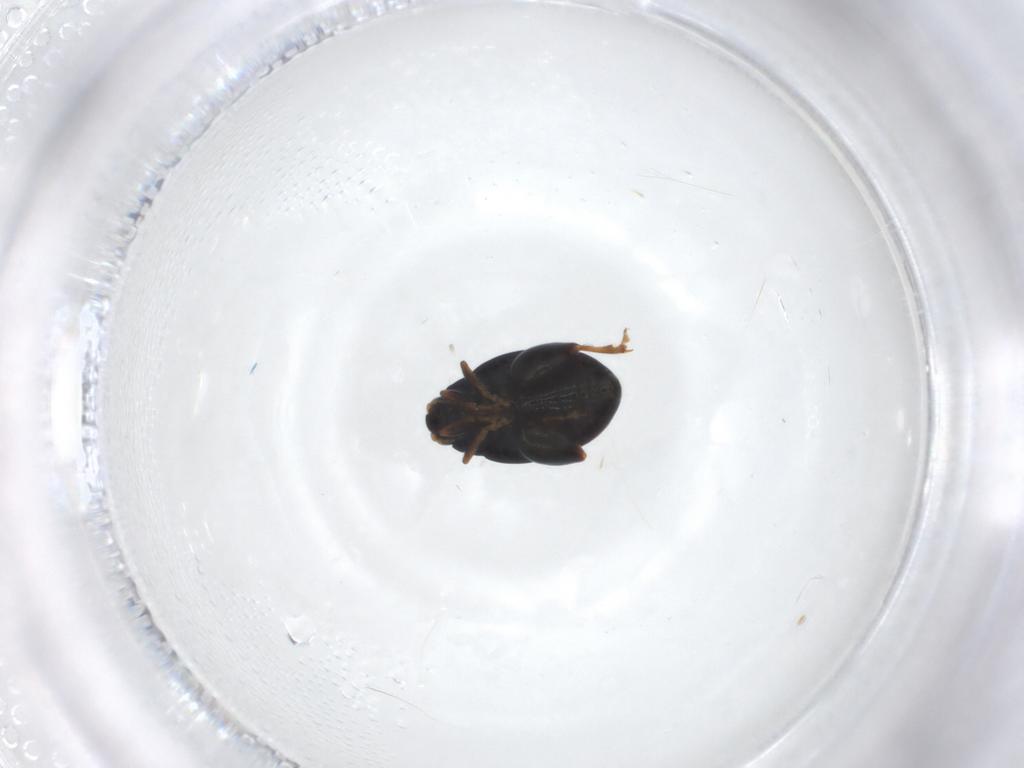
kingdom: Animalia
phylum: Arthropoda
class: Insecta
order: Coleoptera
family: Chrysomelidae
